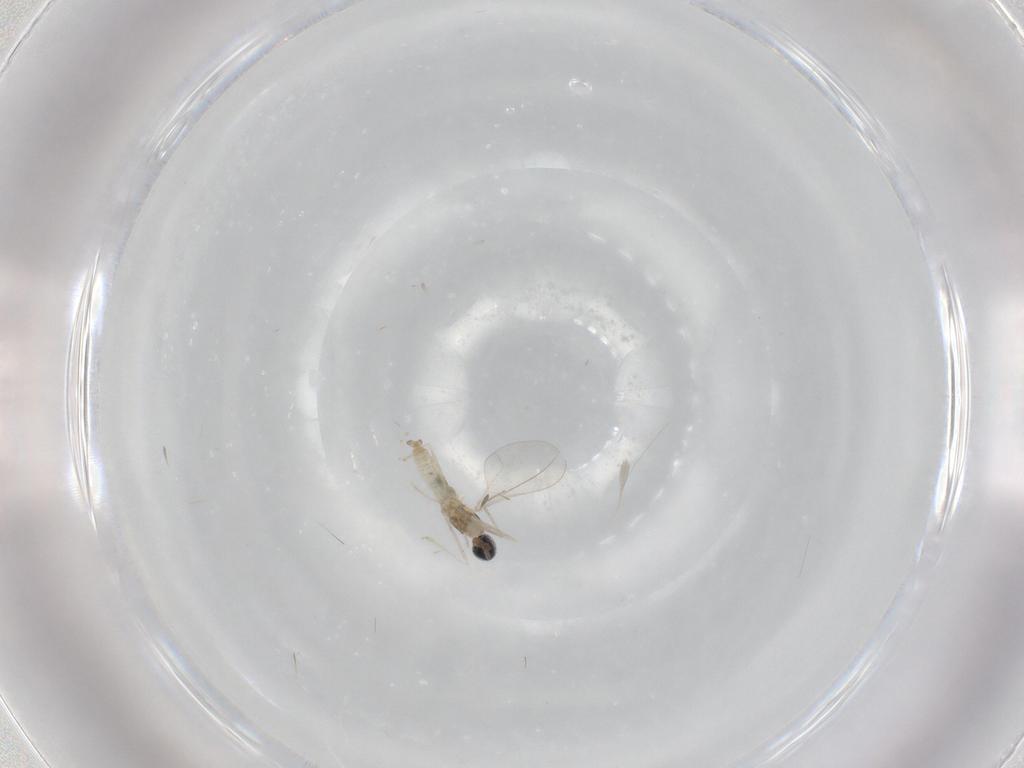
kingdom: Animalia
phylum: Arthropoda
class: Insecta
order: Diptera
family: Cecidomyiidae
